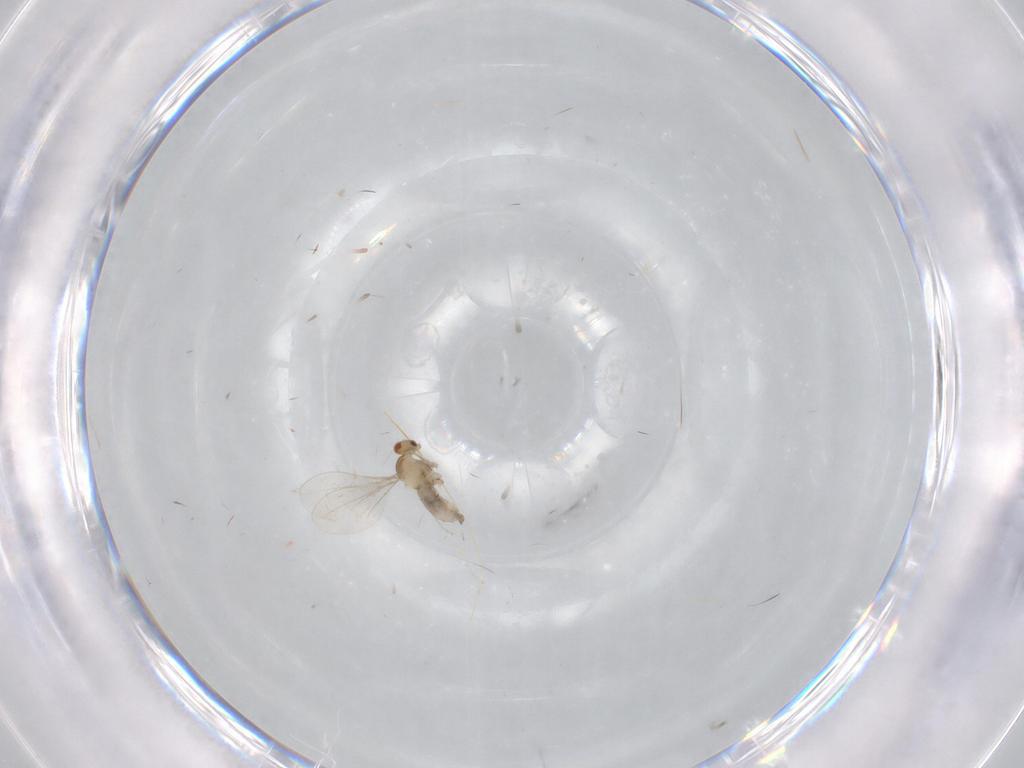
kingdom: Animalia
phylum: Arthropoda
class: Insecta
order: Diptera
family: Cecidomyiidae
